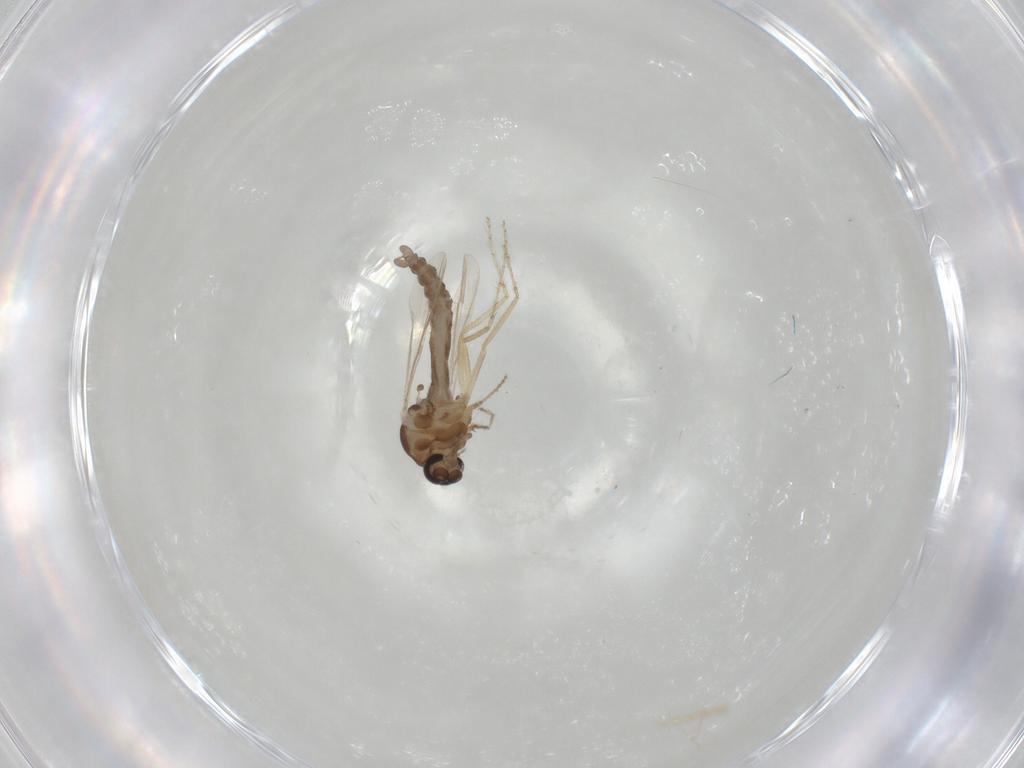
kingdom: Animalia
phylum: Arthropoda
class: Insecta
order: Diptera
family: Ceratopogonidae
